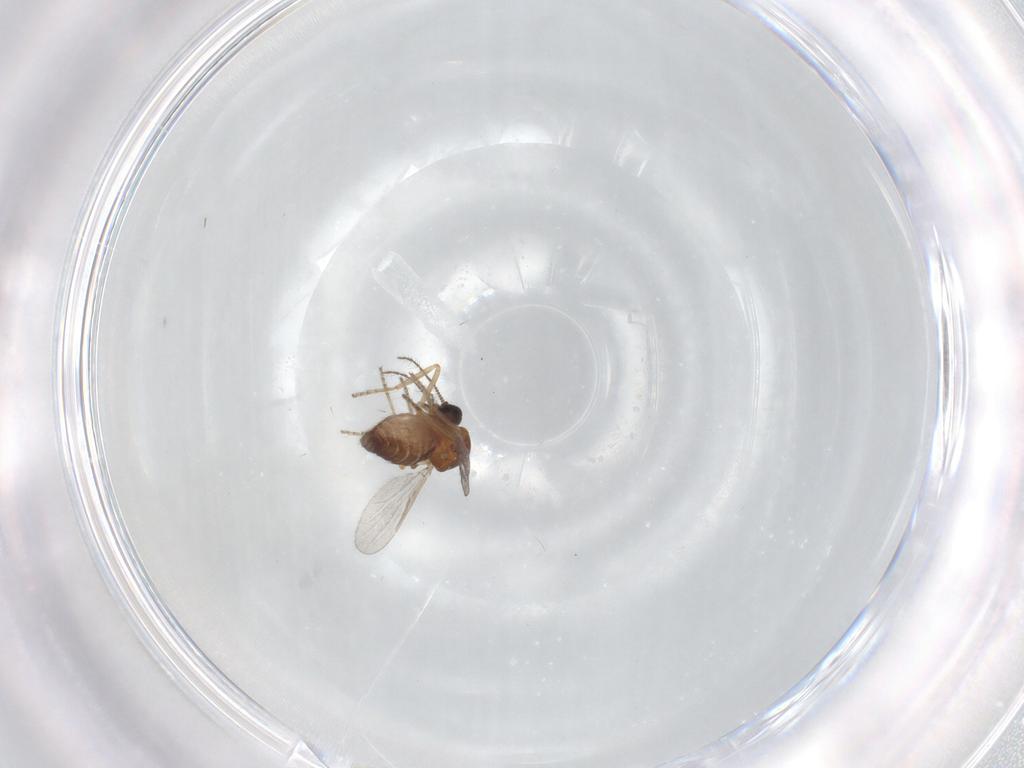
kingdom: Animalia
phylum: Arthropoda
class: Insecta
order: Diptera
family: Ceratopogonidae
